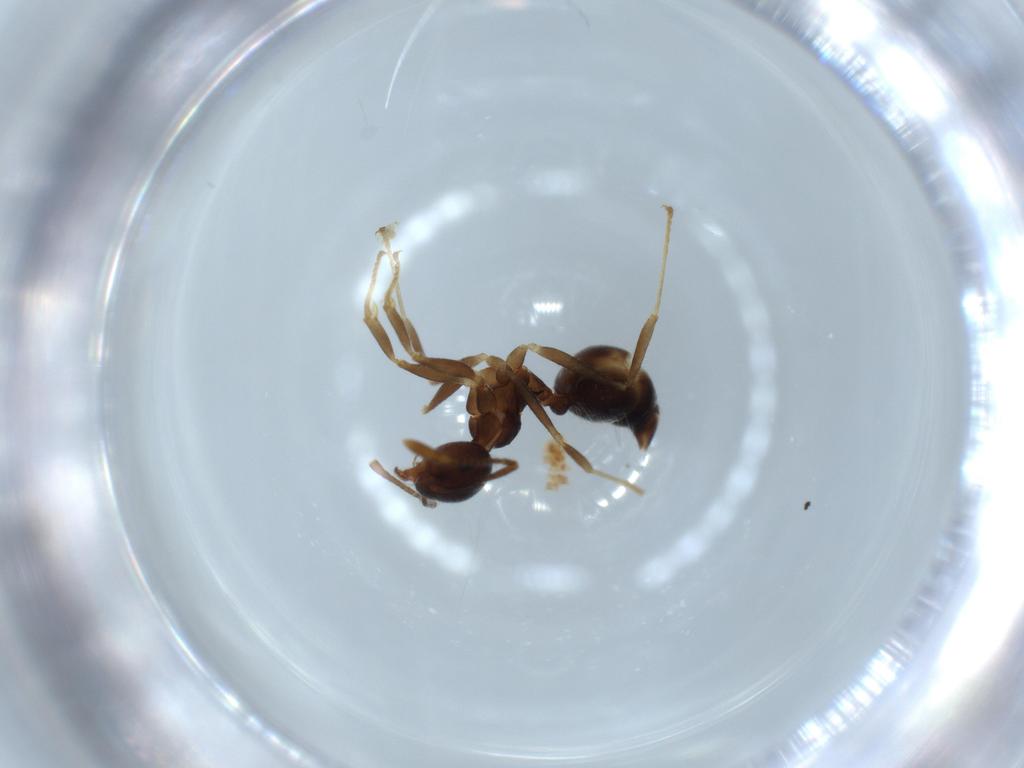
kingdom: Animalia
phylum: Arthropoda
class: Insecta
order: Hymenoptera
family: Formicidae
